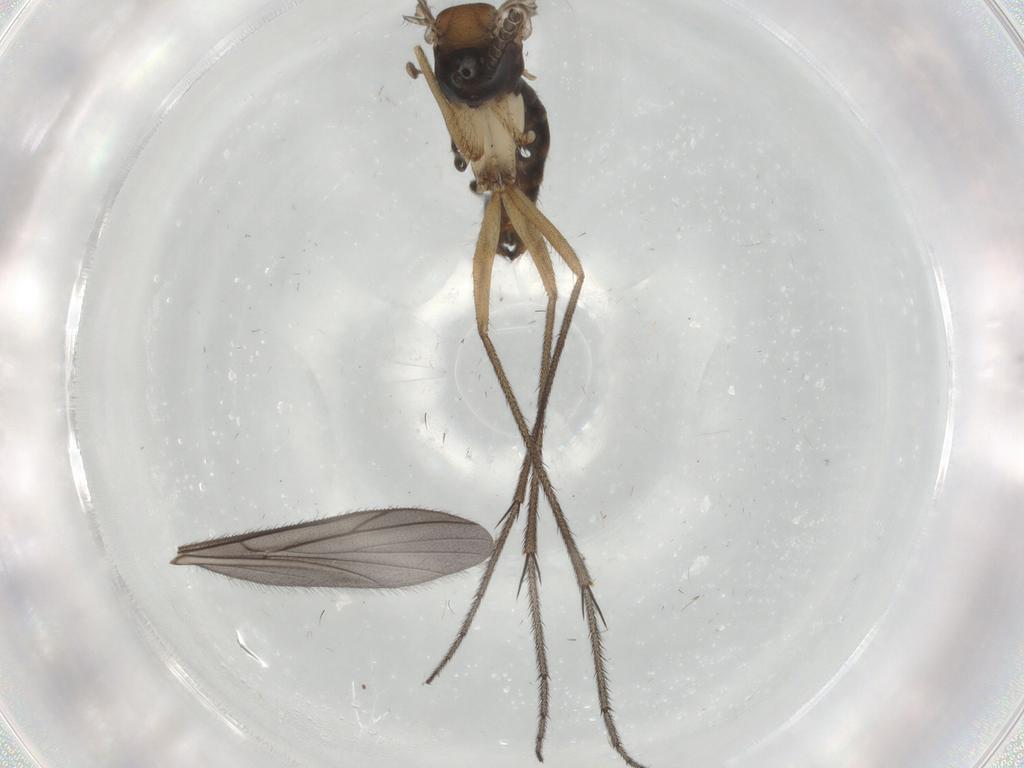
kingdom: Animalia
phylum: Arthropoda
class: Insecta
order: Diptera
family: Ditomyiidae
